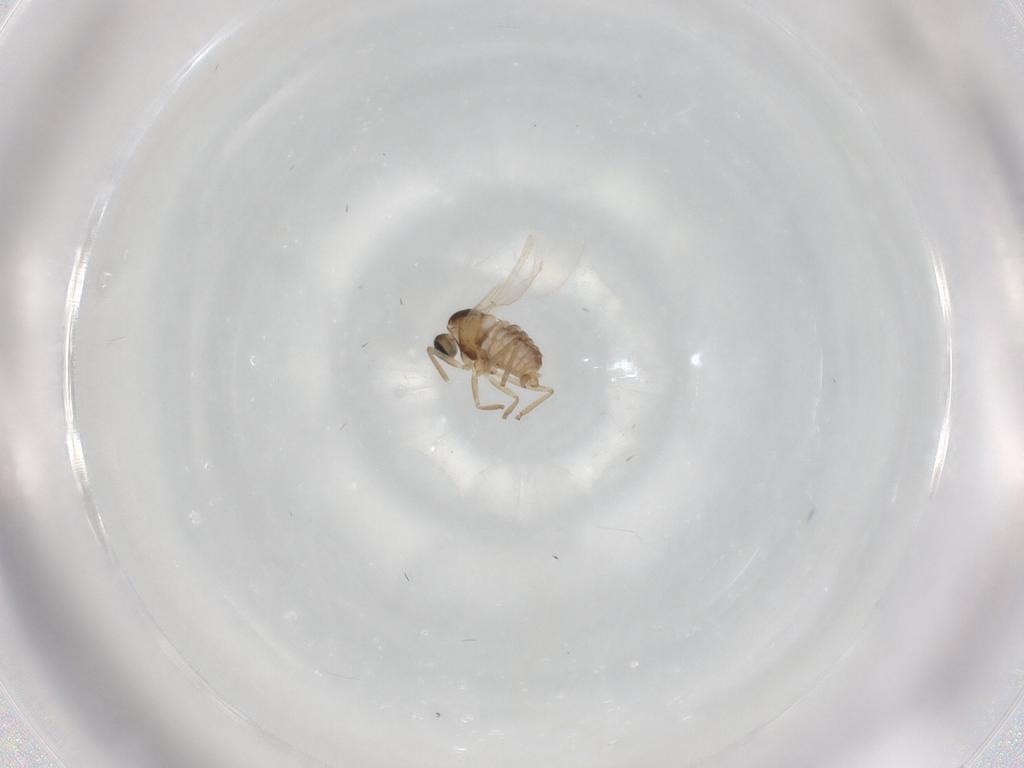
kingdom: Animalia
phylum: Arthropoda
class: Insecta
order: Diptera
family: Cecidomyiidae
